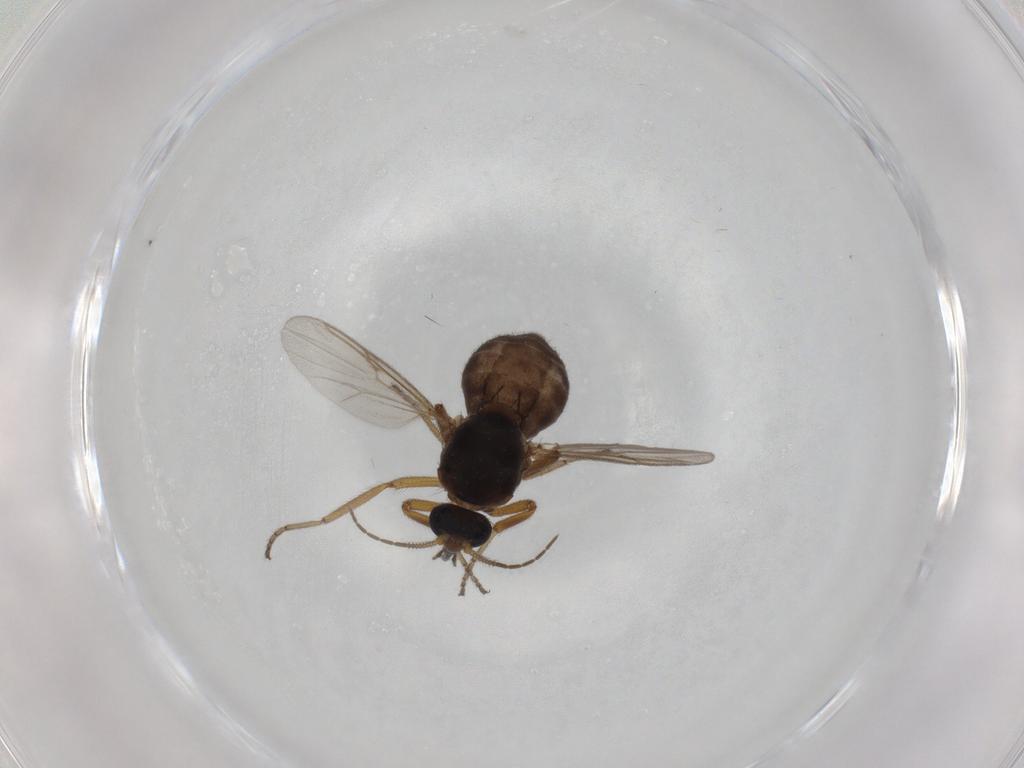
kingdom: Animalia
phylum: Arthropoda
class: Insecta
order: Diptera
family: Ceratopogonidae
